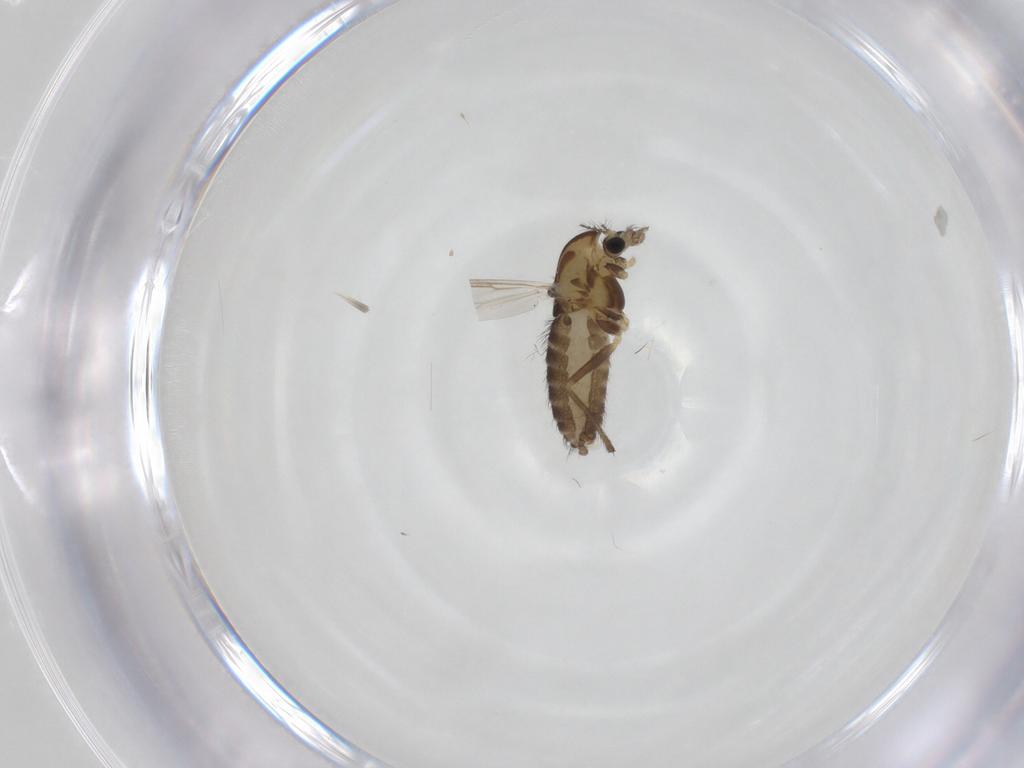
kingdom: Animalia
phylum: Arthropoda
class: Insecta
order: Diptera
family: Chironomidae
